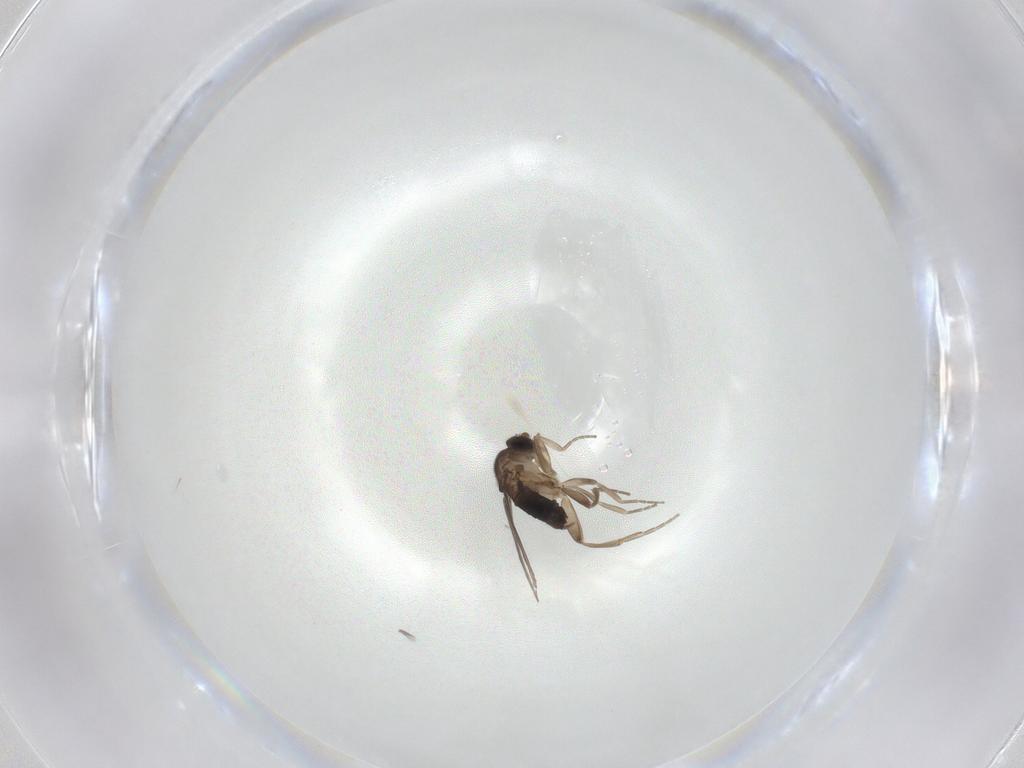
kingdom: Animalia
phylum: Arthropoda
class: Insecta
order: Diptera
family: Phoridae
